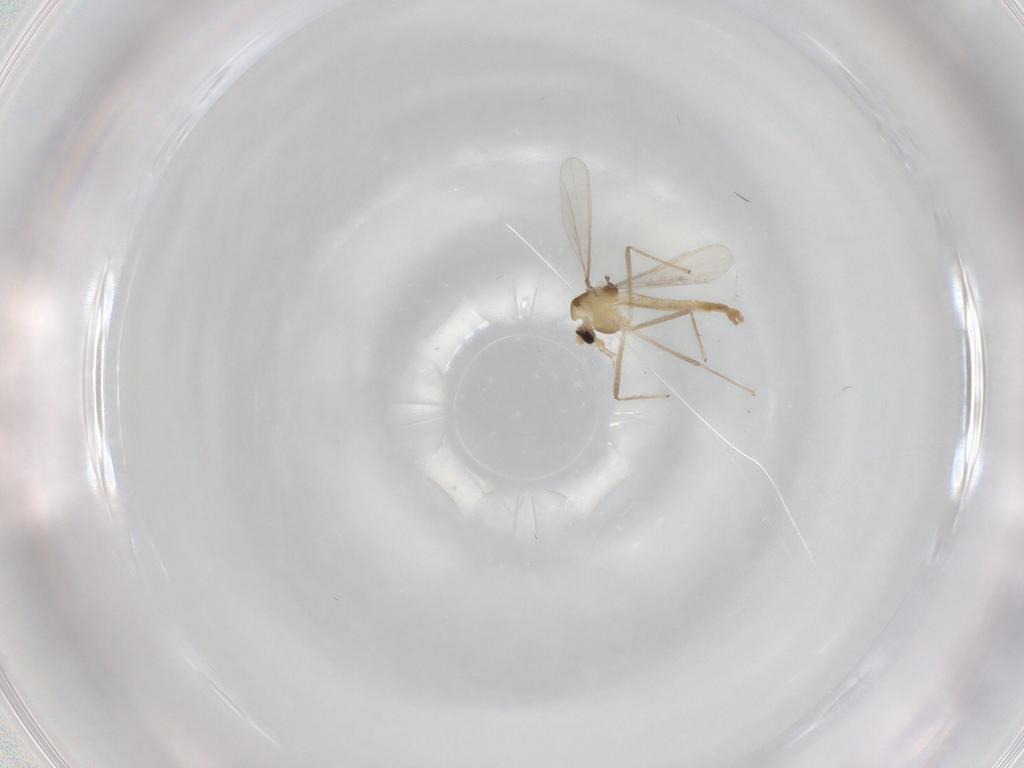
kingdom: Animalia
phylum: Arthropoda
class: Insecta
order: Diptera
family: Chironomidae
